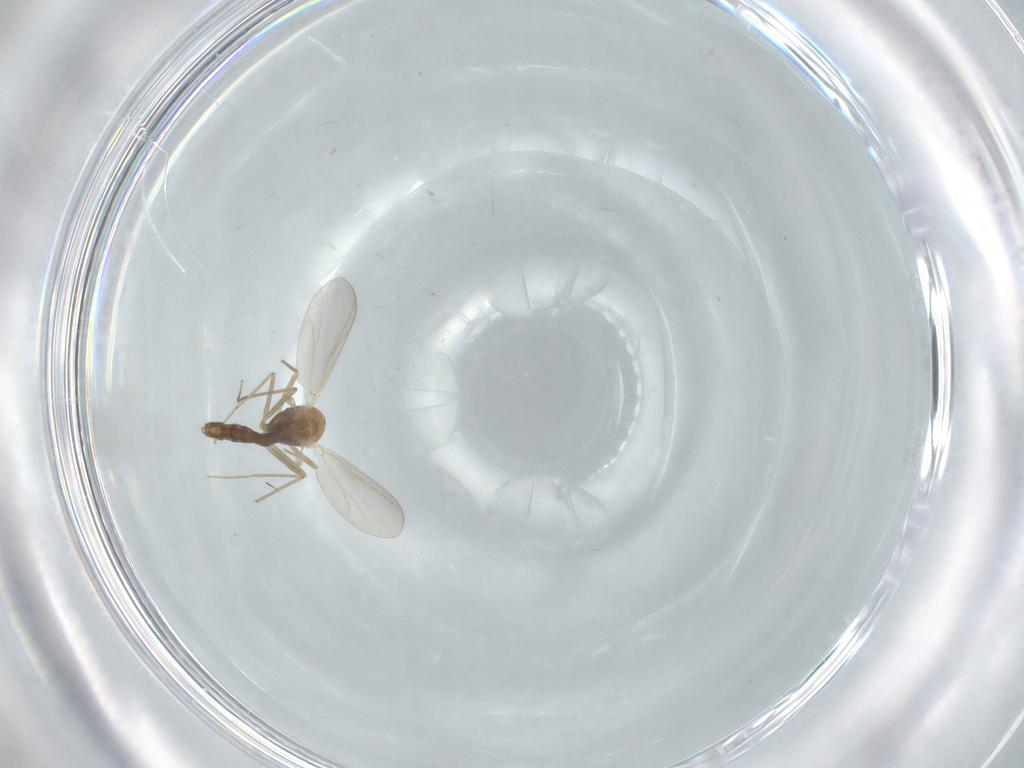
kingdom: Animalia
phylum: Arthropoda
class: Insecta
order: Diptera
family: Chironomidae
